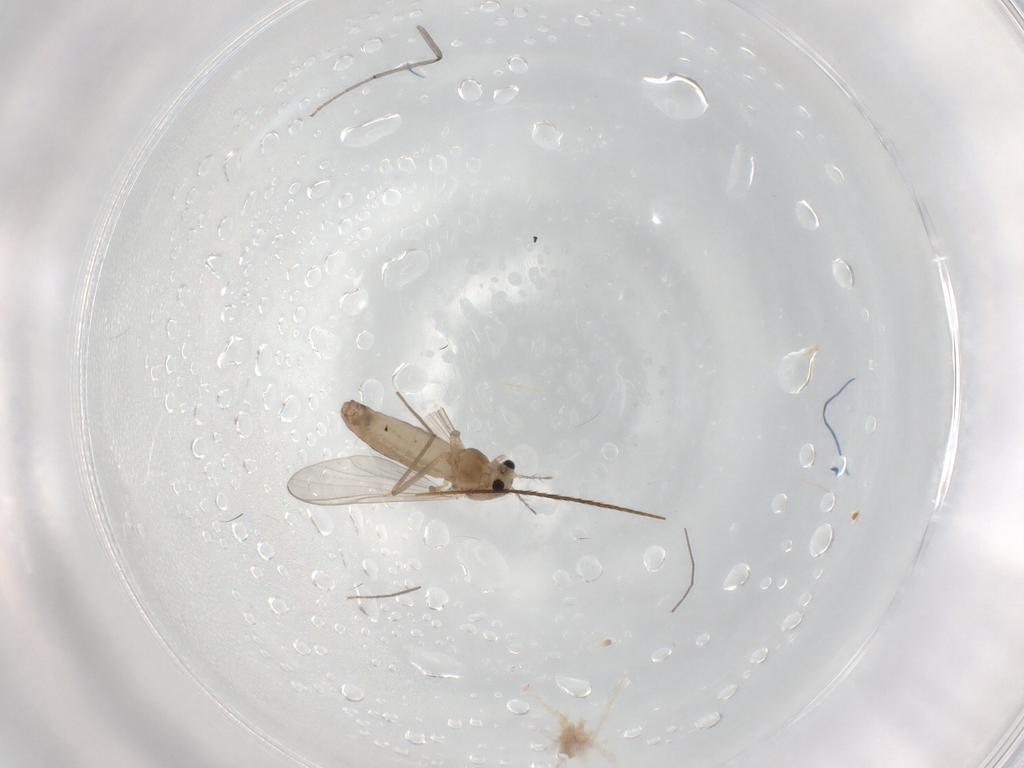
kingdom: Animalia
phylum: Arthropoda
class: Insecta
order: Diptera
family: Chironomidae
